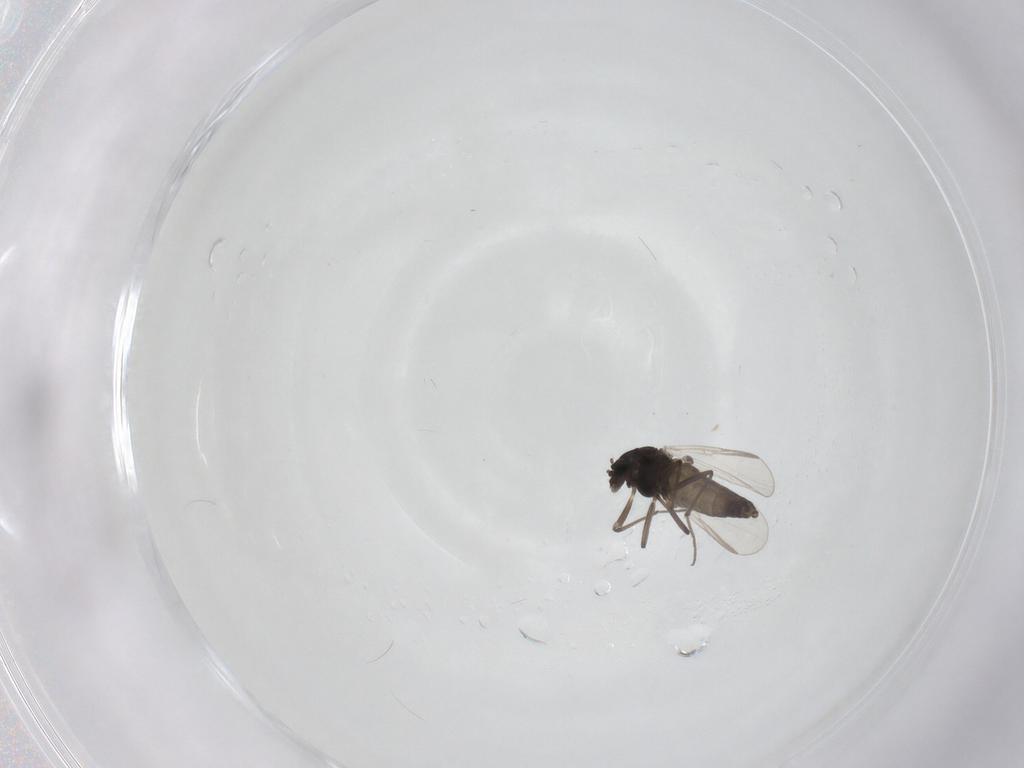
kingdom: Animalia
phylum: Arthropoda
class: Insecta
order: Diptera
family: Chironomidae
